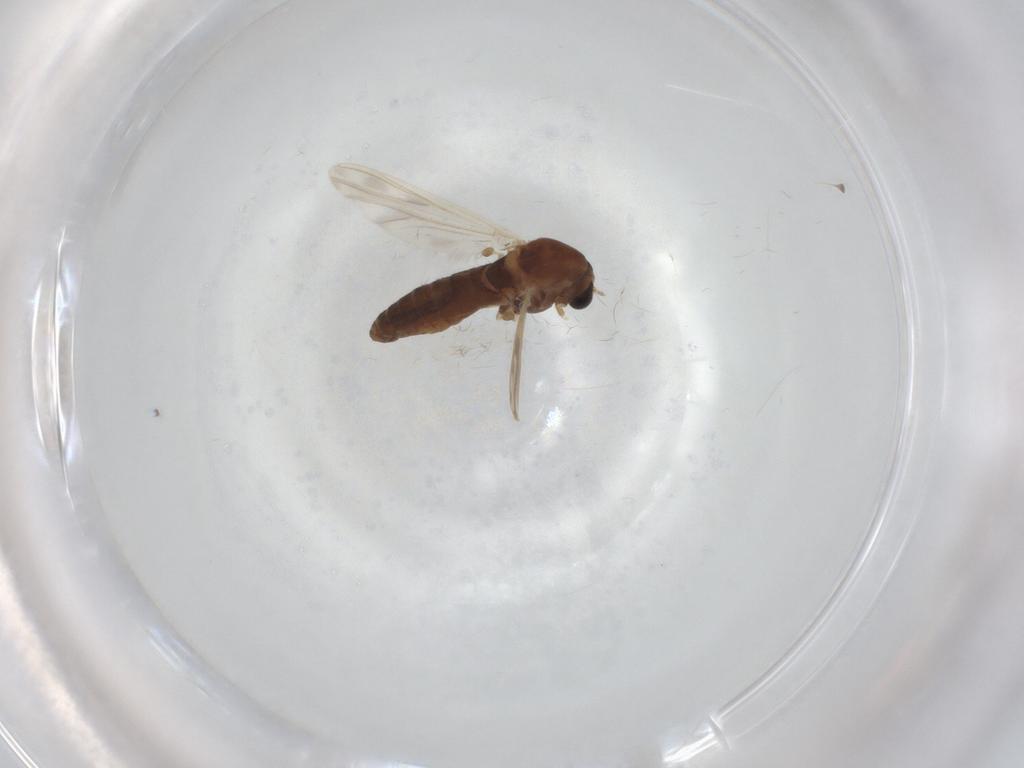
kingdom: Animalia
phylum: Arthropoda
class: Insecta
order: Diptera
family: Chironomidae
